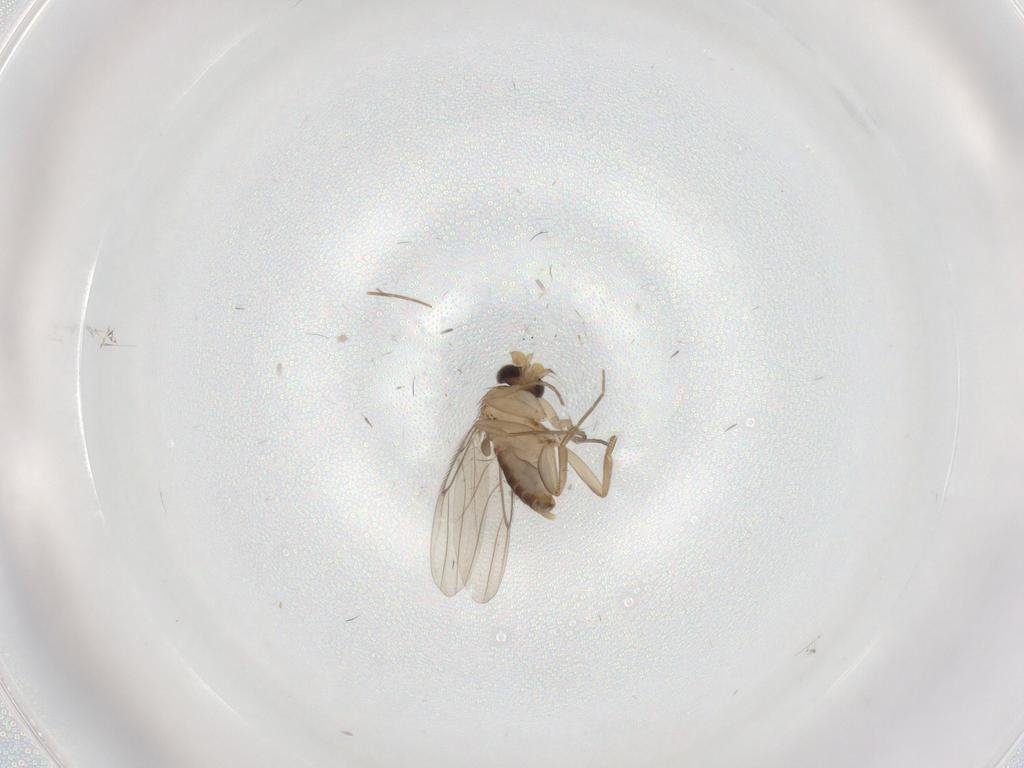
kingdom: Animalia
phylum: Arthropoda
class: Insecta
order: Diptera
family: Phoridae
